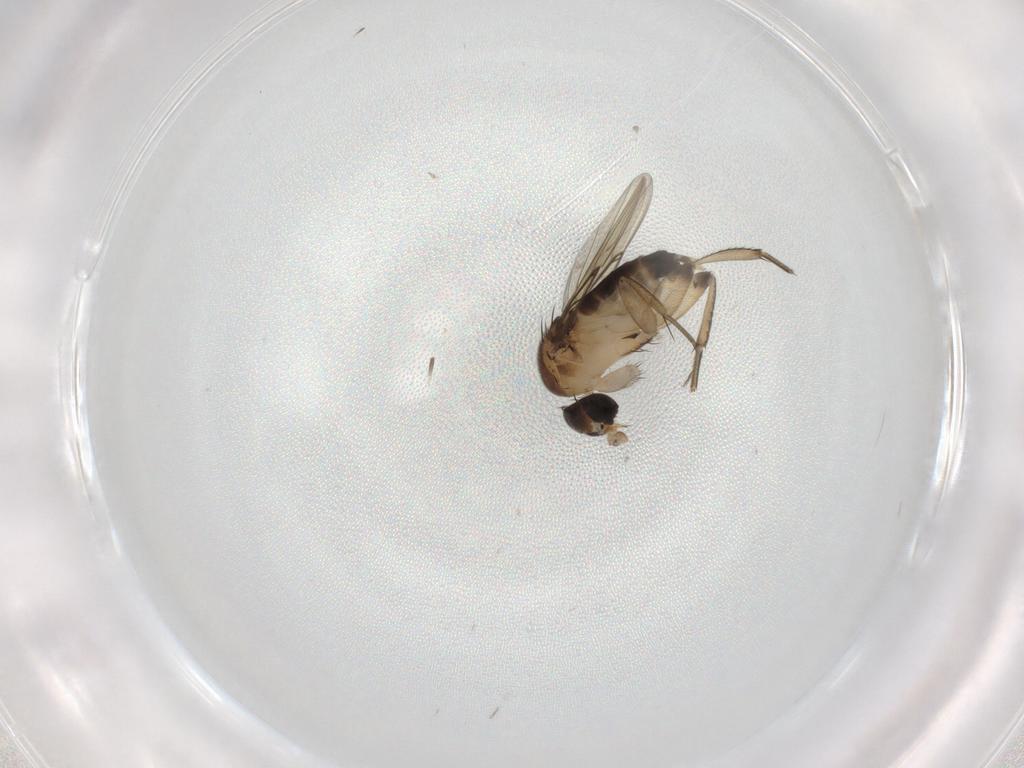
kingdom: Animalia
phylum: Arthropoda
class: Insecta
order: Diptera
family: Phoridae
